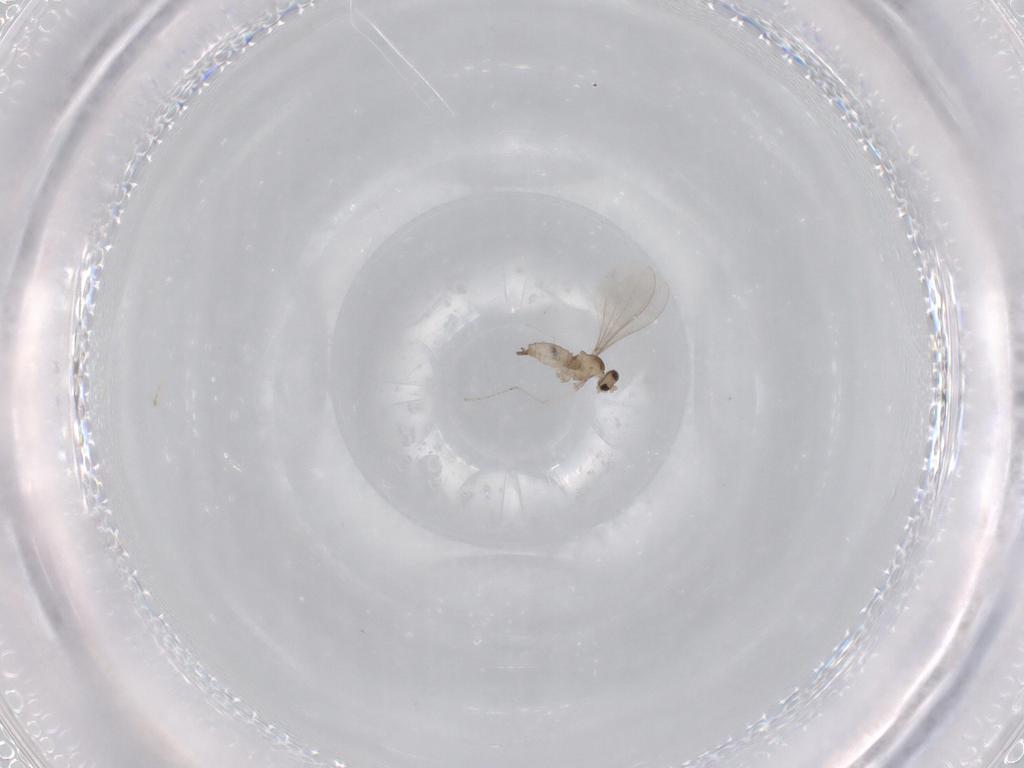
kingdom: Animalia
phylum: Arthropoda
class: Insecta
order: Diptera
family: Cecidomyiidae
